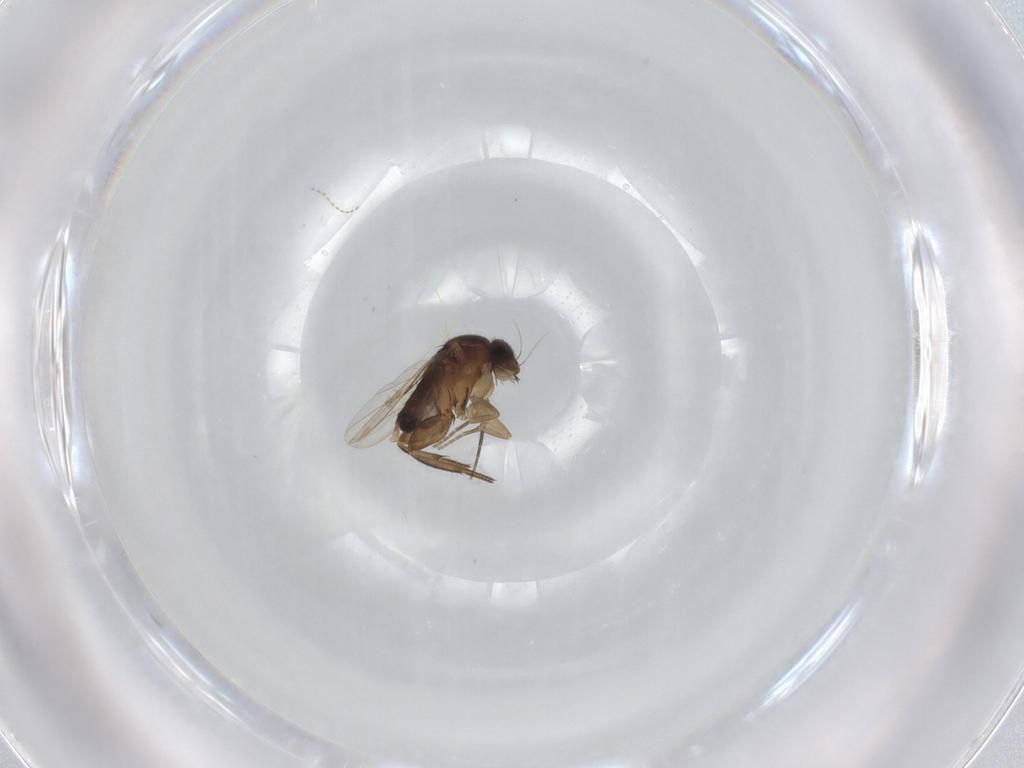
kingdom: Animalia
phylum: Arthropoda
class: Insecta
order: Diptera
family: Phoridae
